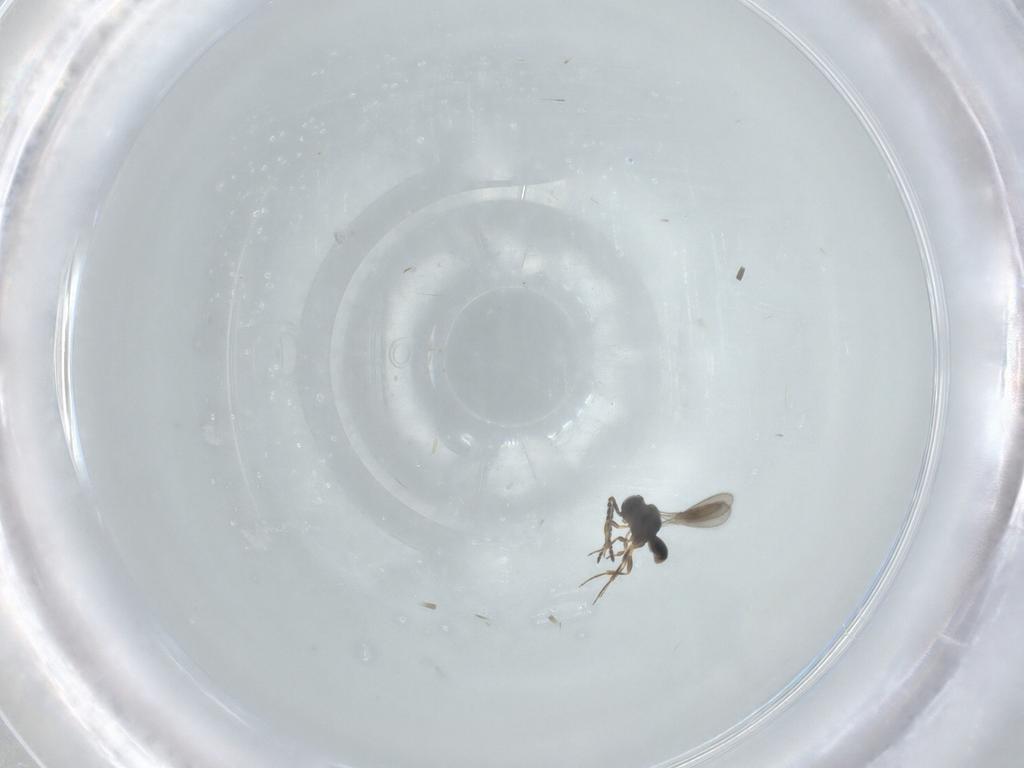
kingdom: Animalia
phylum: Arthropoda
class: Insecta
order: Hymenoptera
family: Scelionidae
